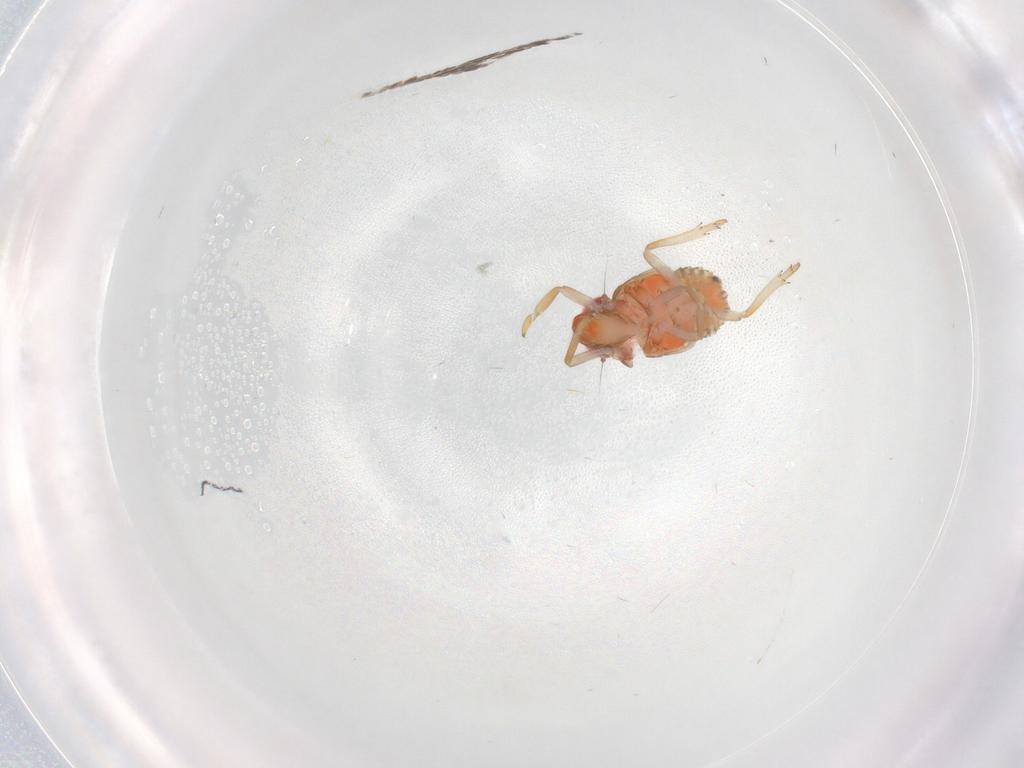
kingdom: Animalia
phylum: Arthropoda
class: Insecta
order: Hemiptera
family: Issidae
